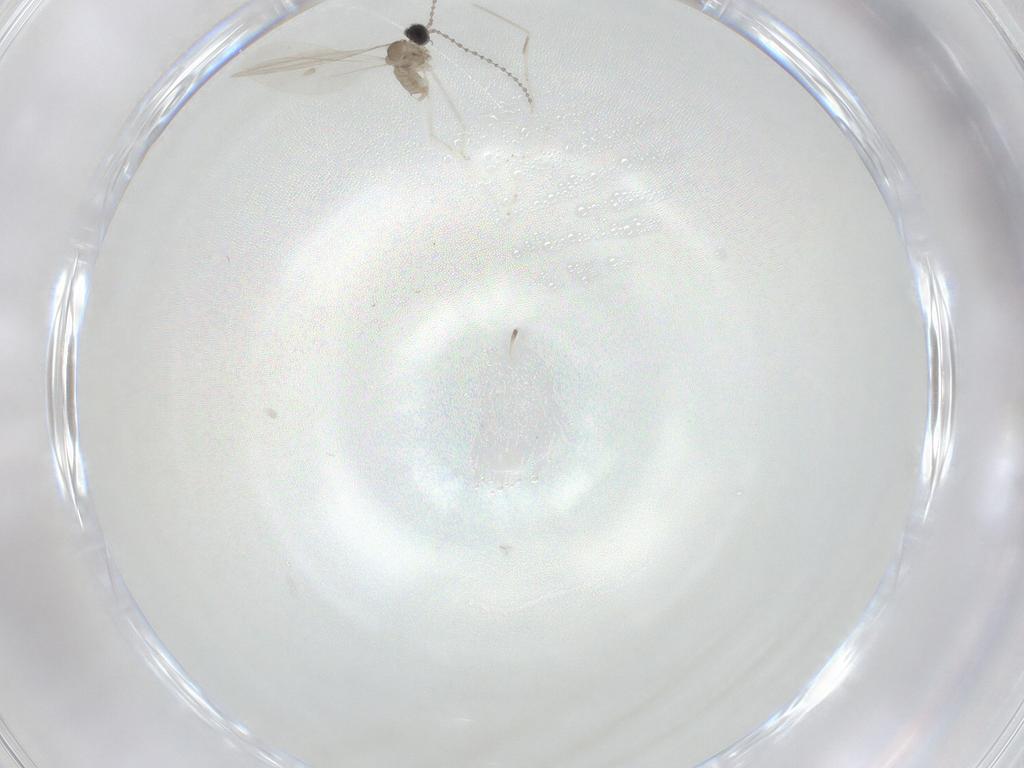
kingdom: Animalia
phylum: Arthropoda
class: Insecta
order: Diptera
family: Cecidomyiidae
